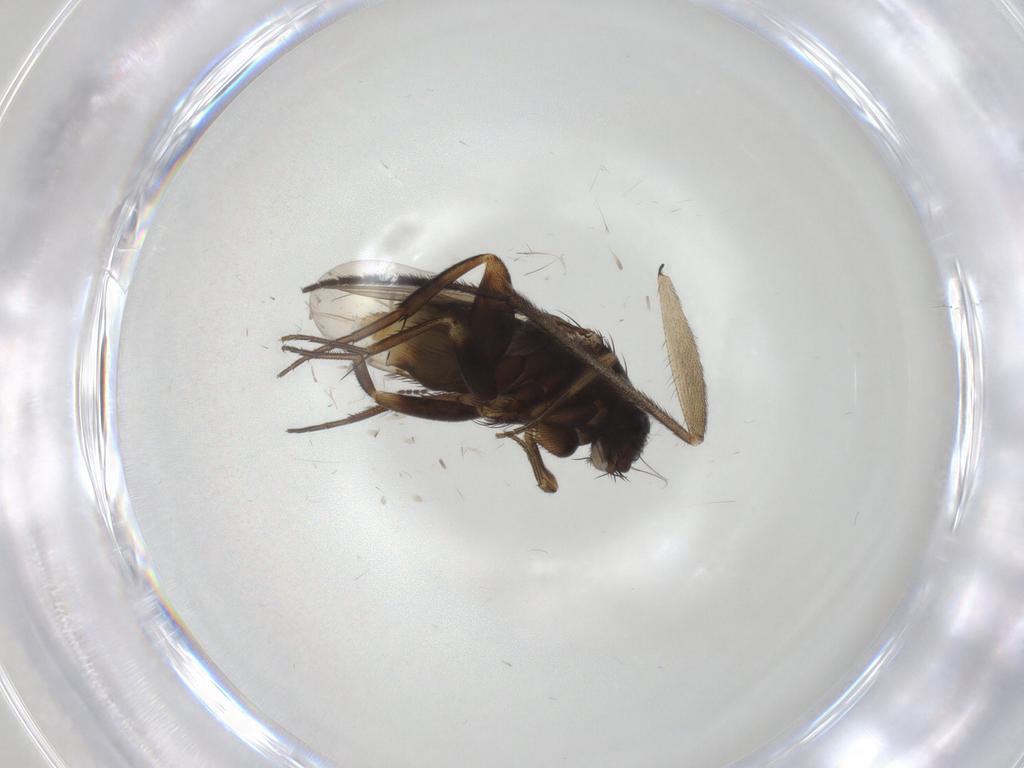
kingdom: Animalia
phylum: Arthropoda
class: Insecta
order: Diptera
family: Phoridae
